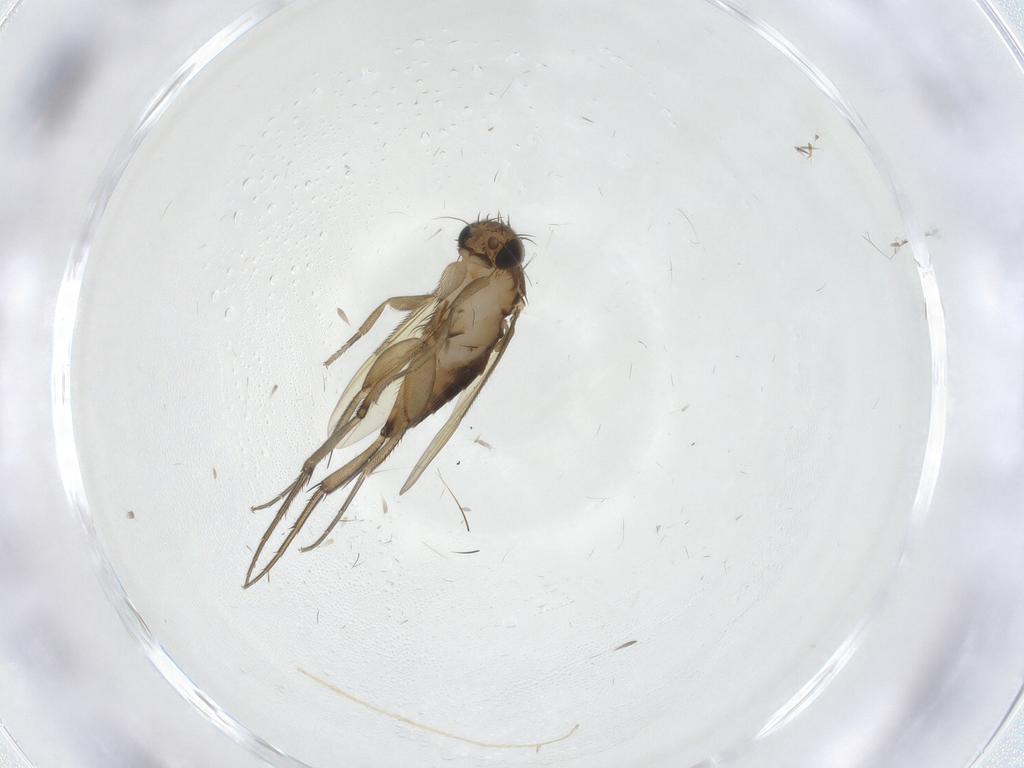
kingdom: Animalia
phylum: Arthropoda
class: Insecta
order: Diptera
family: Phoridae
